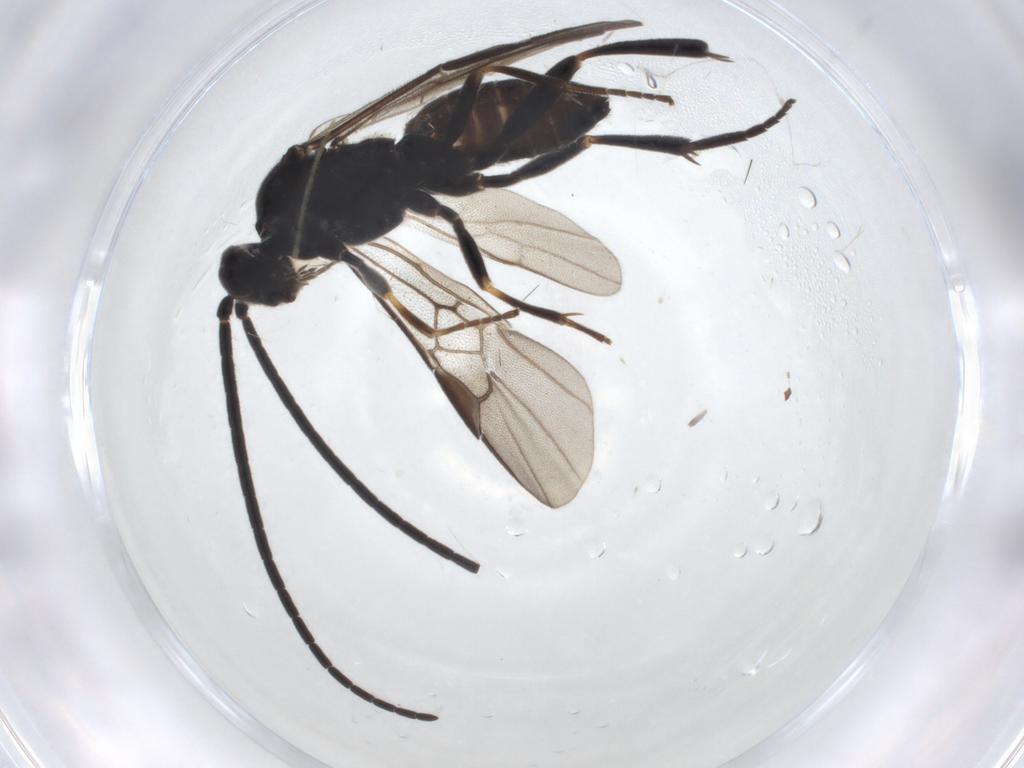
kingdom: Animalia
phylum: Arthropoda
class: Insecta
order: Hymenoptera
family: Braconidae
